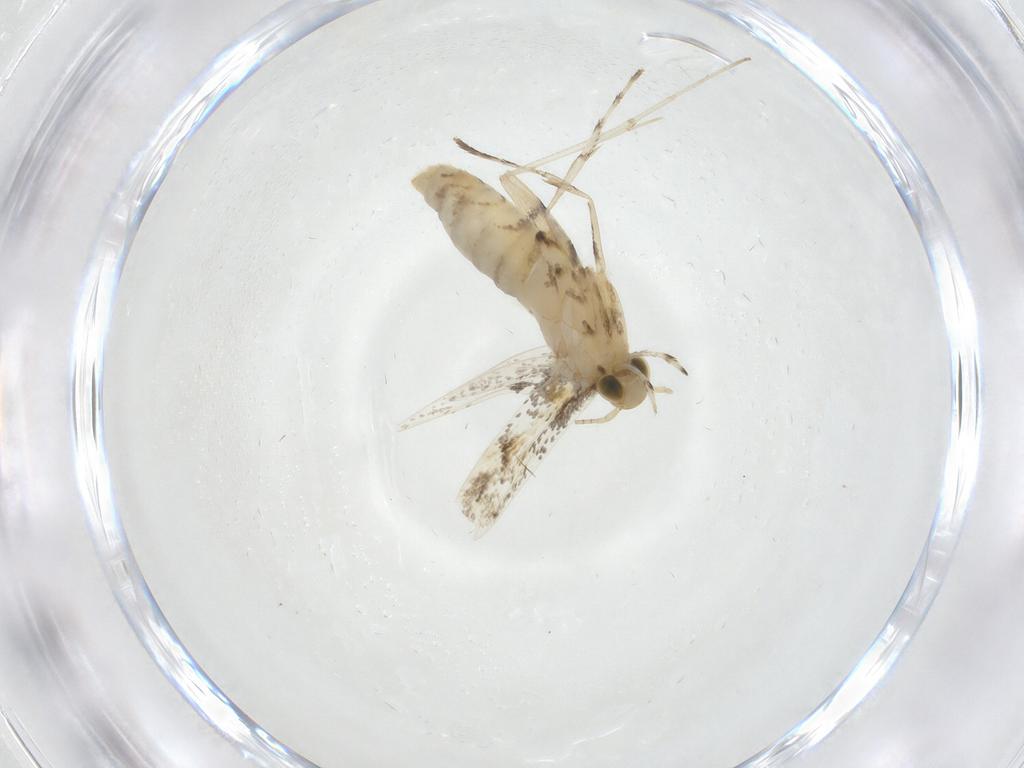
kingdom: Animalia
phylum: Arthropoda
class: Insecta
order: Lepidoptera
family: Gracillariidae
